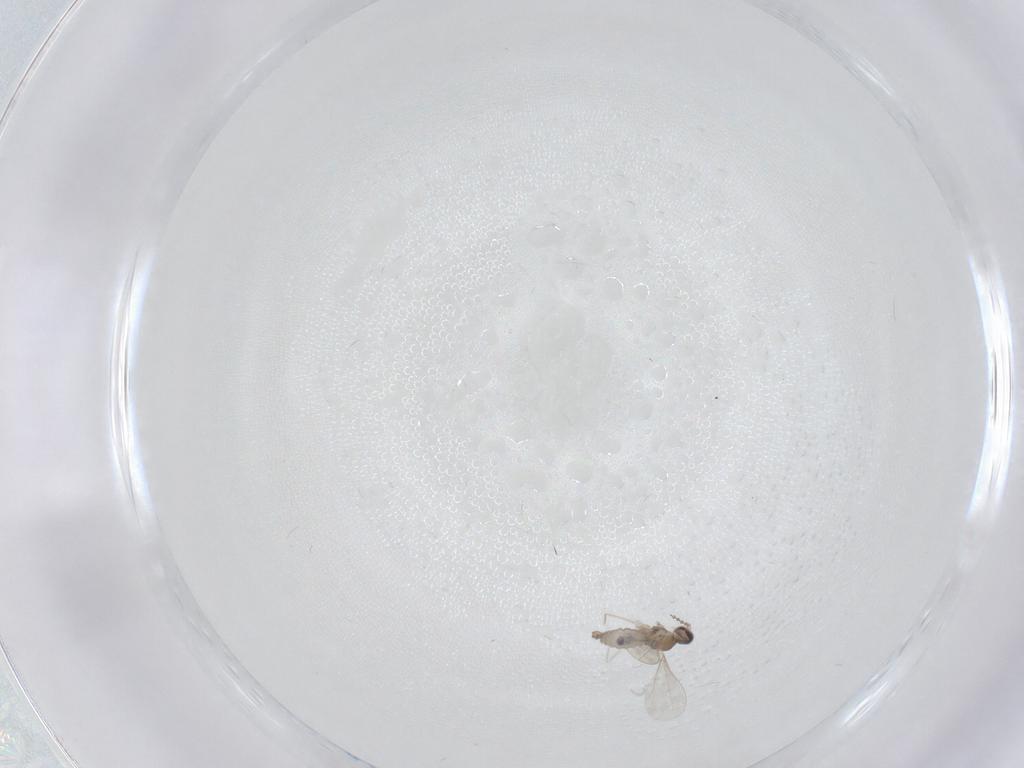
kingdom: Animalia
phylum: Arthropoda
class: Insecta
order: Diptera
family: Cecidomyiidae
